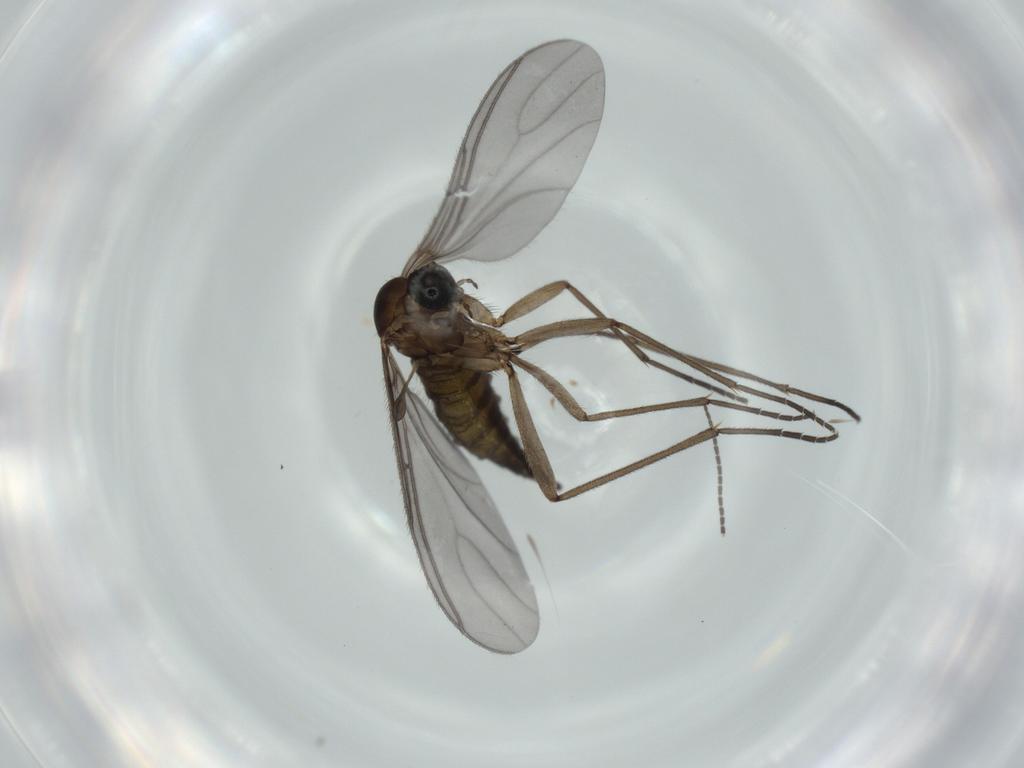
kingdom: Animalia
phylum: Arthropoda
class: Insecta
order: Diptera
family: Sciaridae
